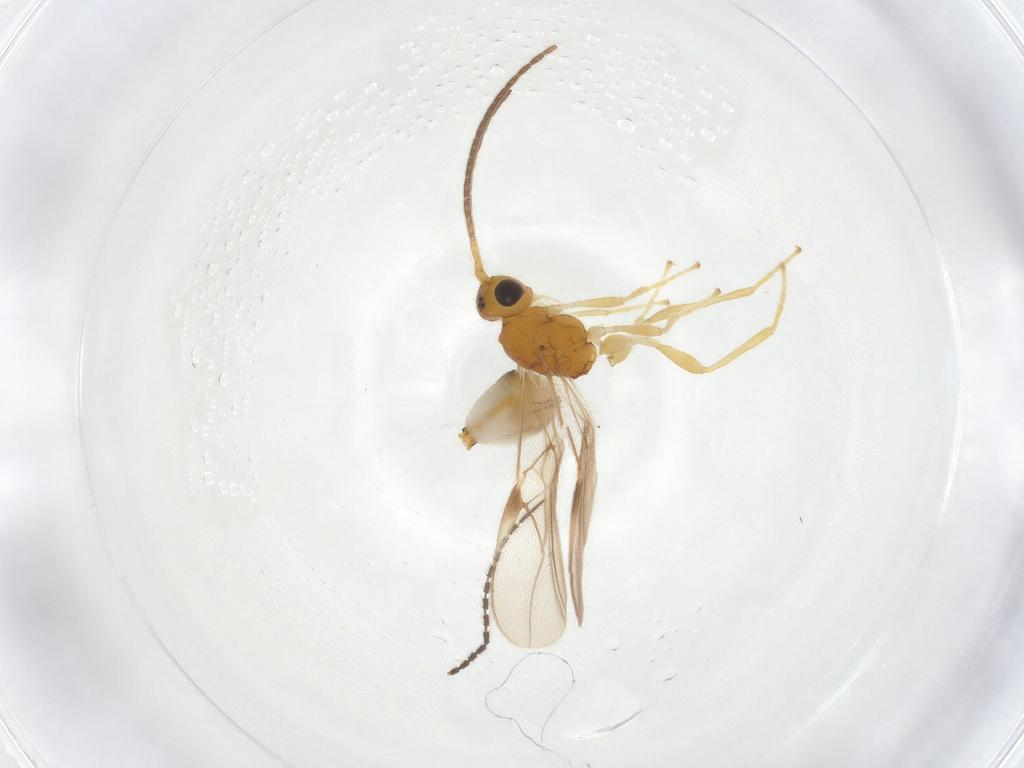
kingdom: Animalia
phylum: Arthropoda
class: Insecta
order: Hymenoptera
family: Braconidae
